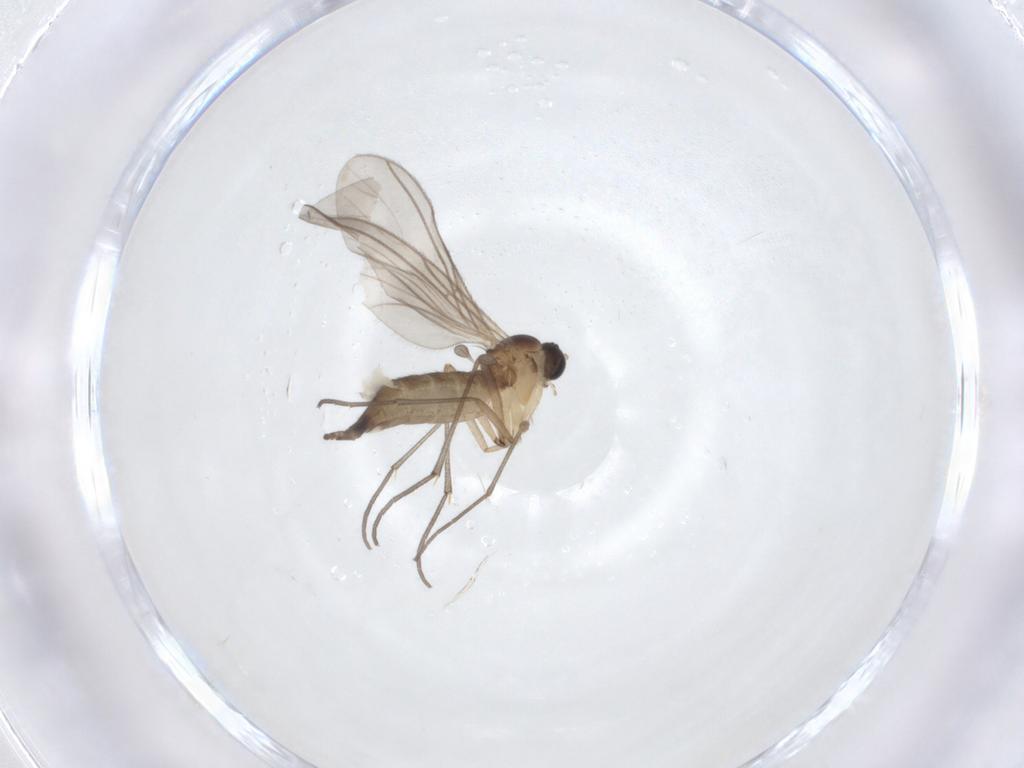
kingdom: Animalia
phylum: Arthropoda
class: Insecta
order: Diptera
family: Sciaridae
